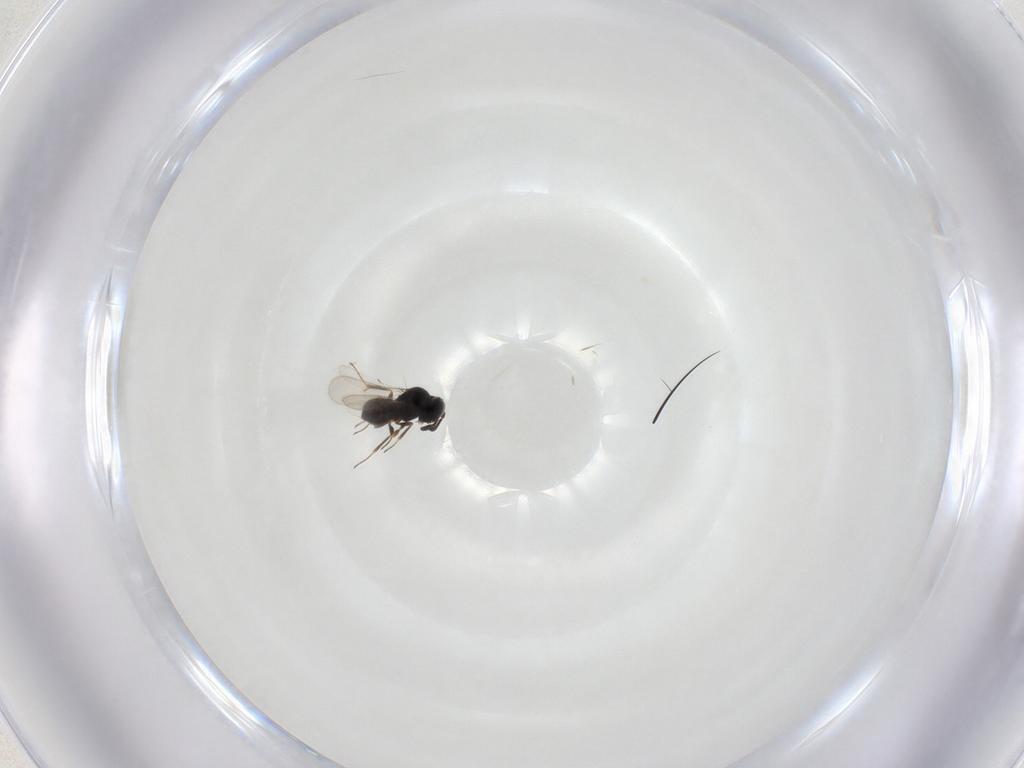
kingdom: Animalia
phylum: Arthropoda
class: Insecta
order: Hymenoptera
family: Scelionidae
